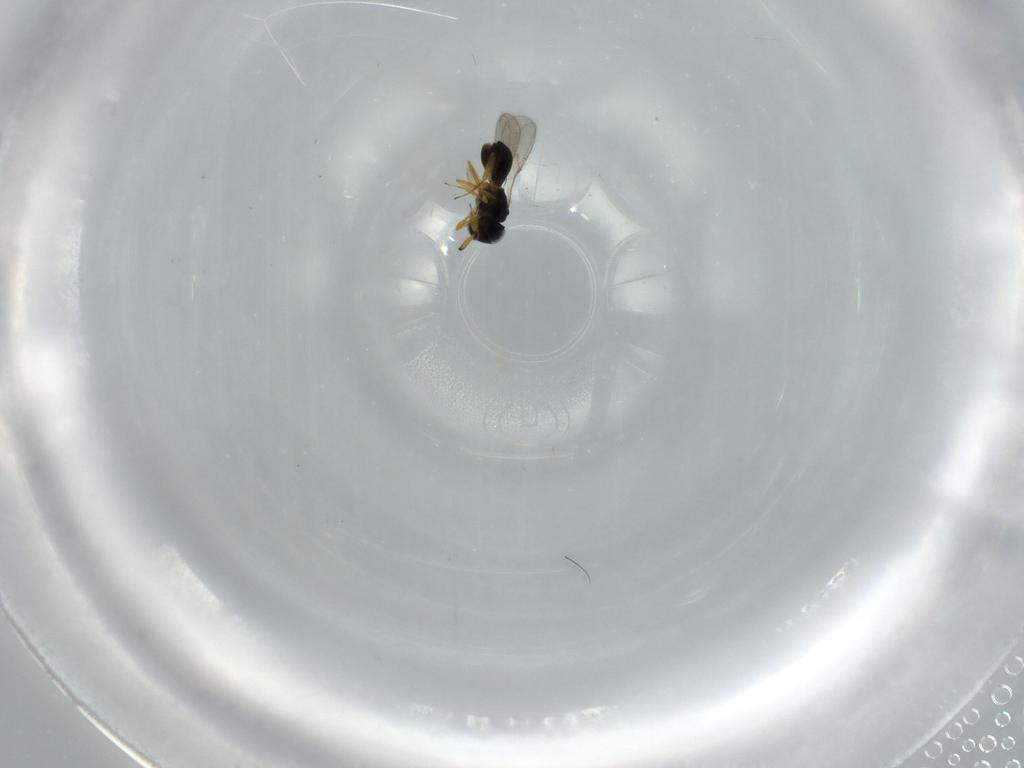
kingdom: Animalia
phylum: Arthropoda
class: Insecta
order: Hymenoptera
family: Scelionidae
